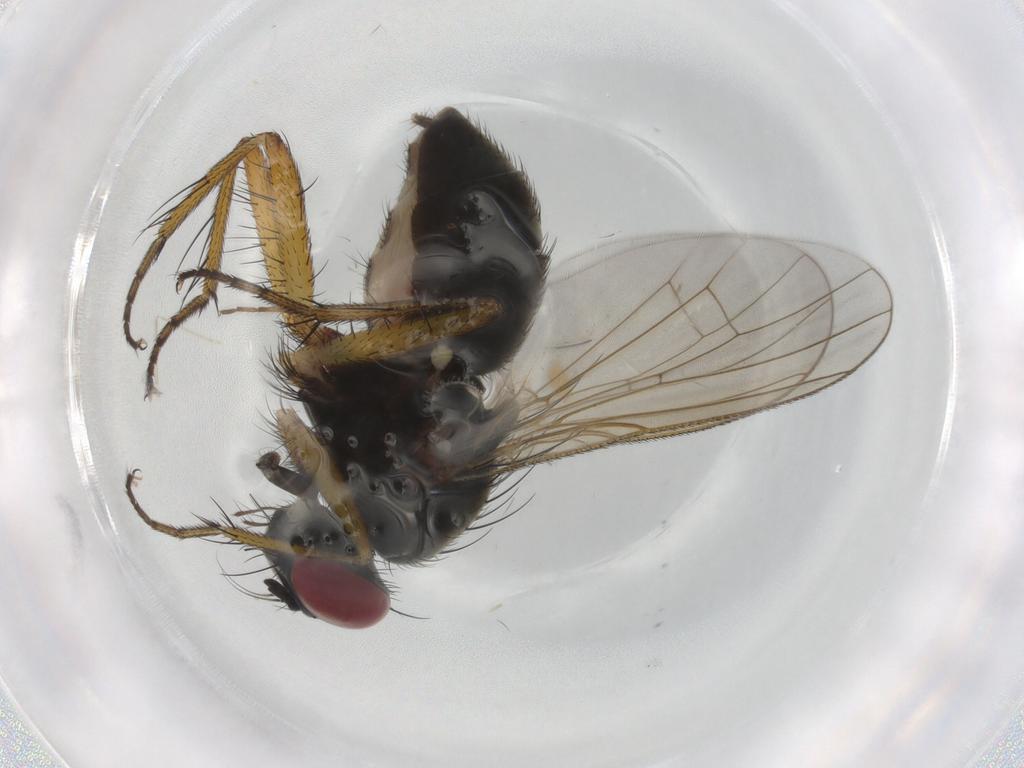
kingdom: Animalia
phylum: Arthropoda
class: Insecta
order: Diptera
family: Muscidae
